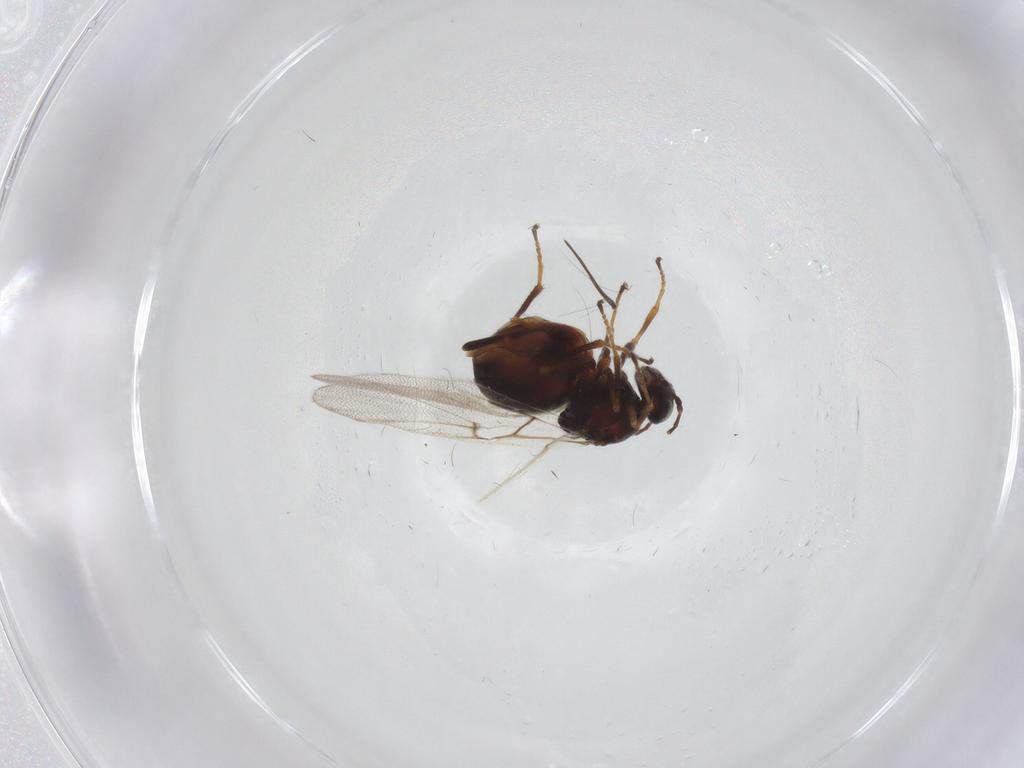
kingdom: Animalia
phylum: Arthropoda
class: Insecta
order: Hymenoptera
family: Cynipidae
